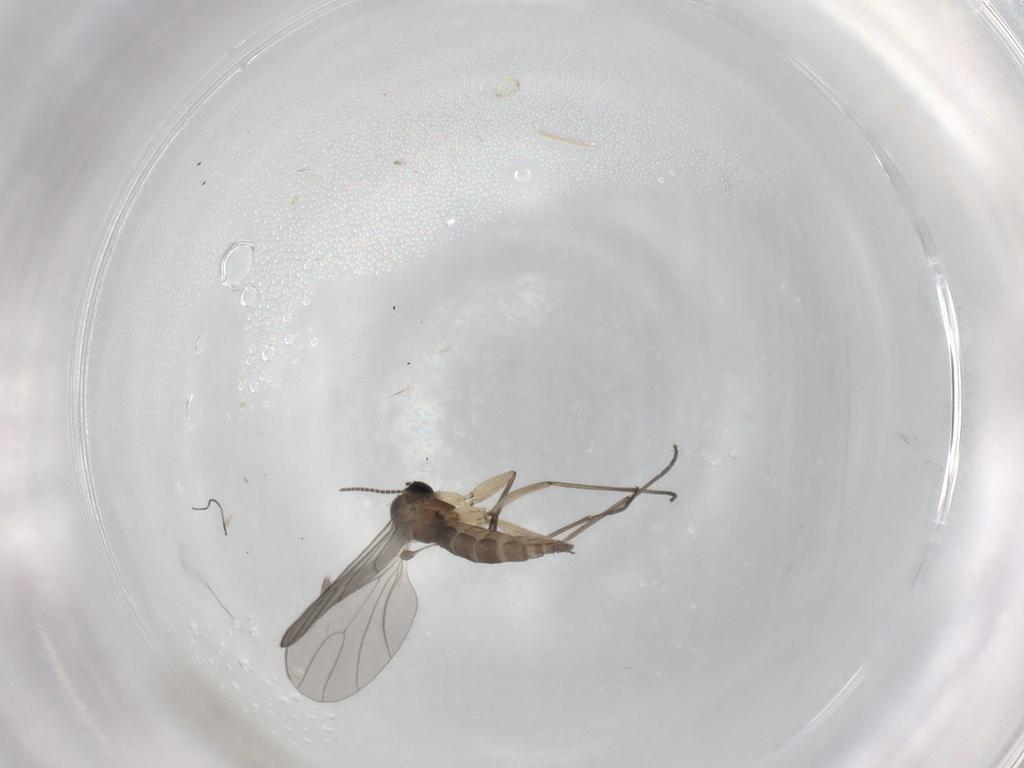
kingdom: Animalia
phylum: Arthropoda
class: Insecta
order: Diptera
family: Sciaridae
